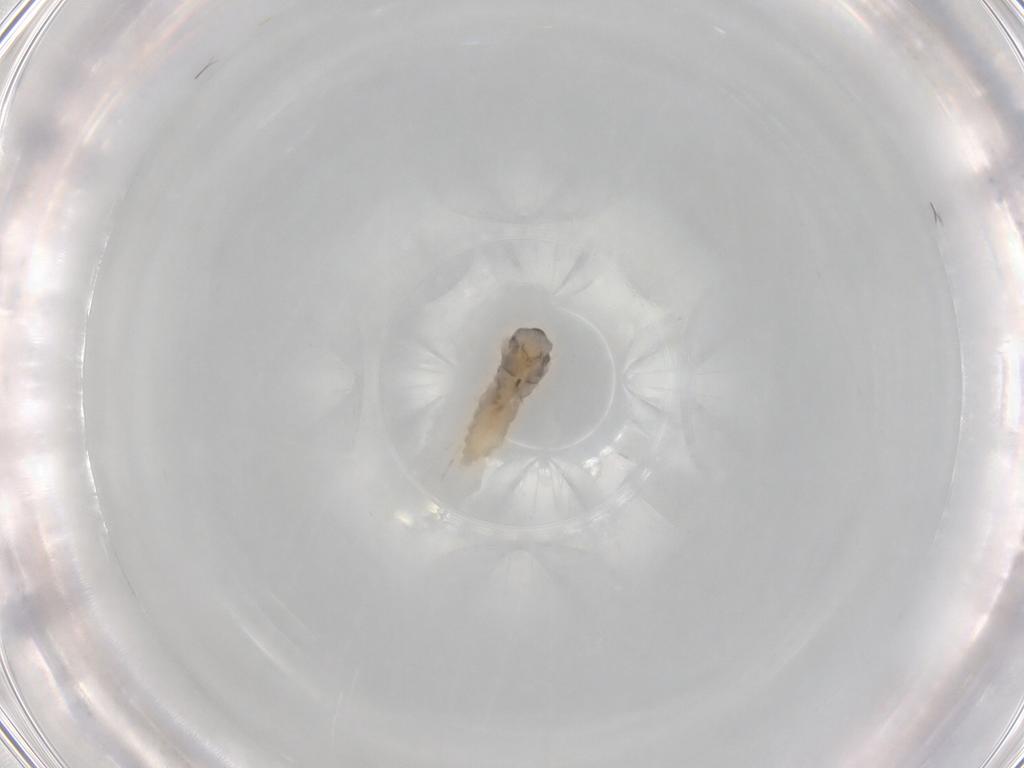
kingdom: Animalia
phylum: Arthropoda
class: Insecta
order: Diptera
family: Cecidomyiidae
